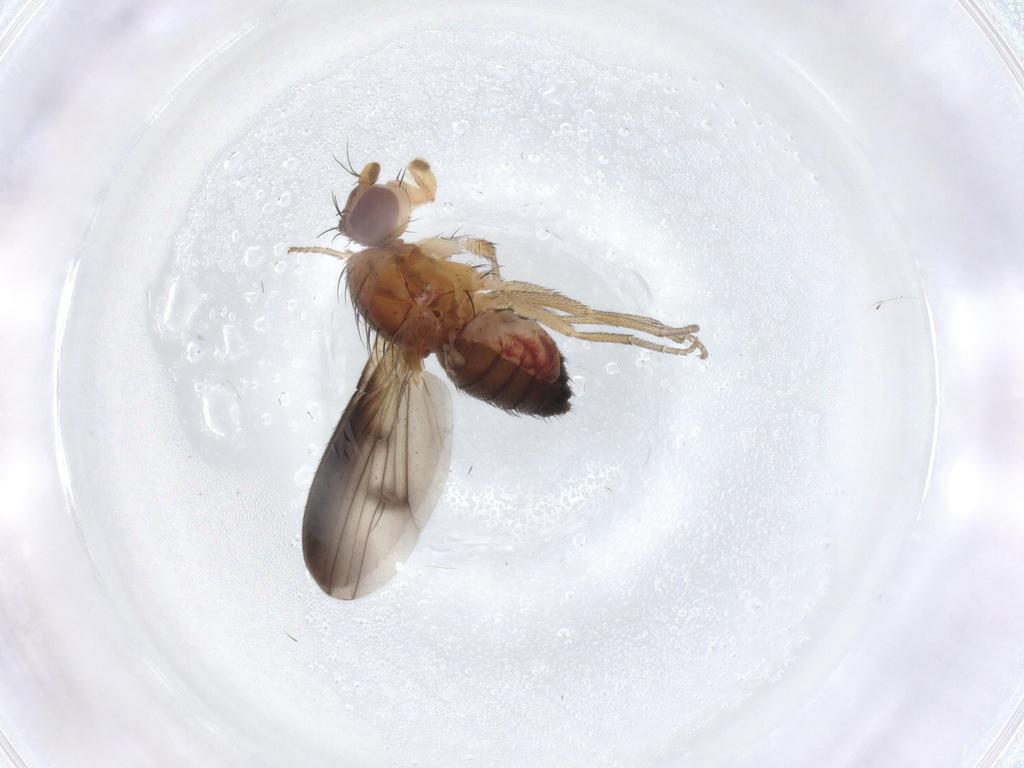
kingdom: Animalia
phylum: Arthropoda
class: Insecta
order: Diptera
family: Heleomyzidae
